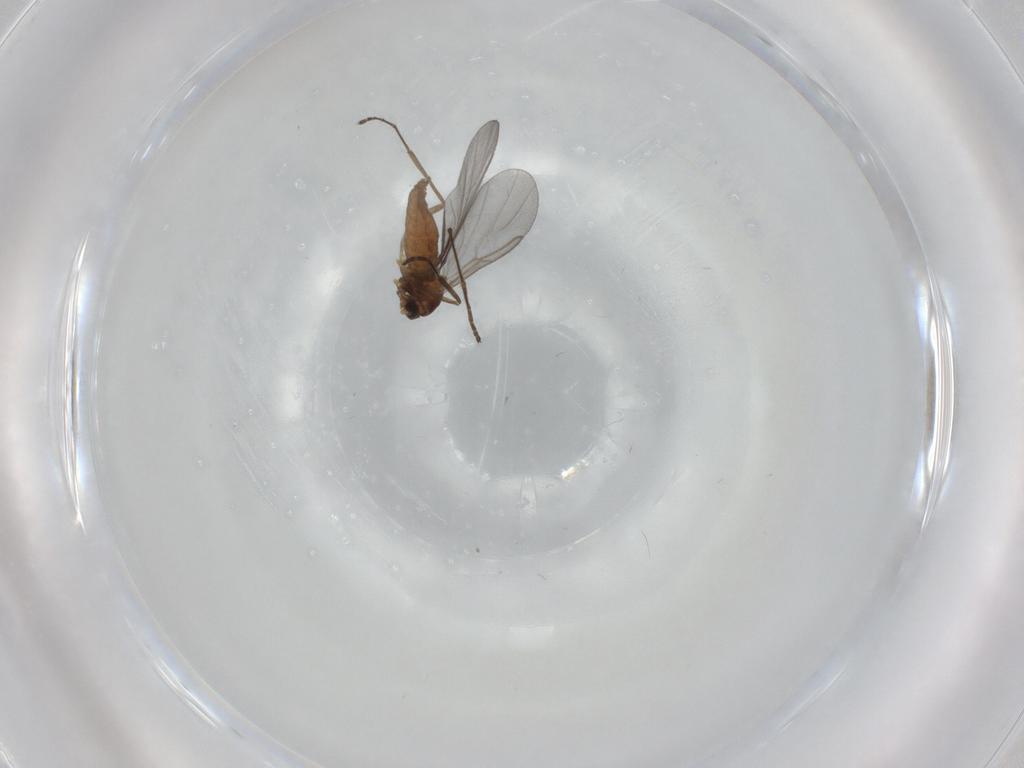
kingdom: Animalia
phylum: Arthropoda
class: Insecta
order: Diptera
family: Cecidomyiidae
